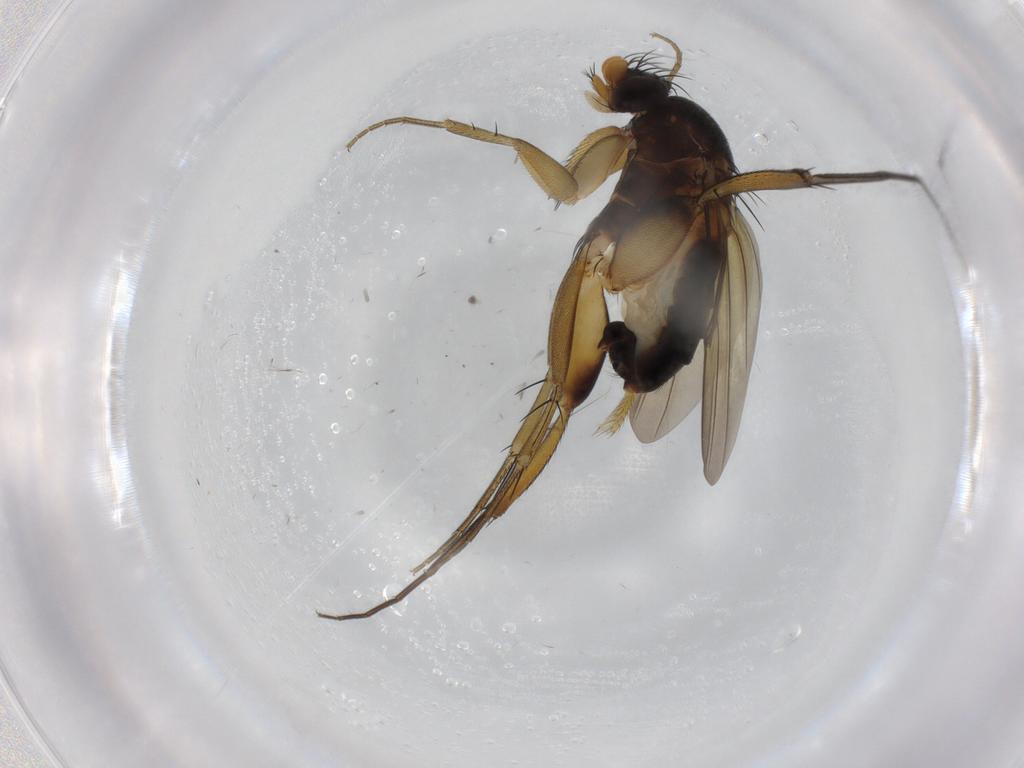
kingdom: Animalia
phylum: Arthropoda
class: Insecta
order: Diptera
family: Phoridae
